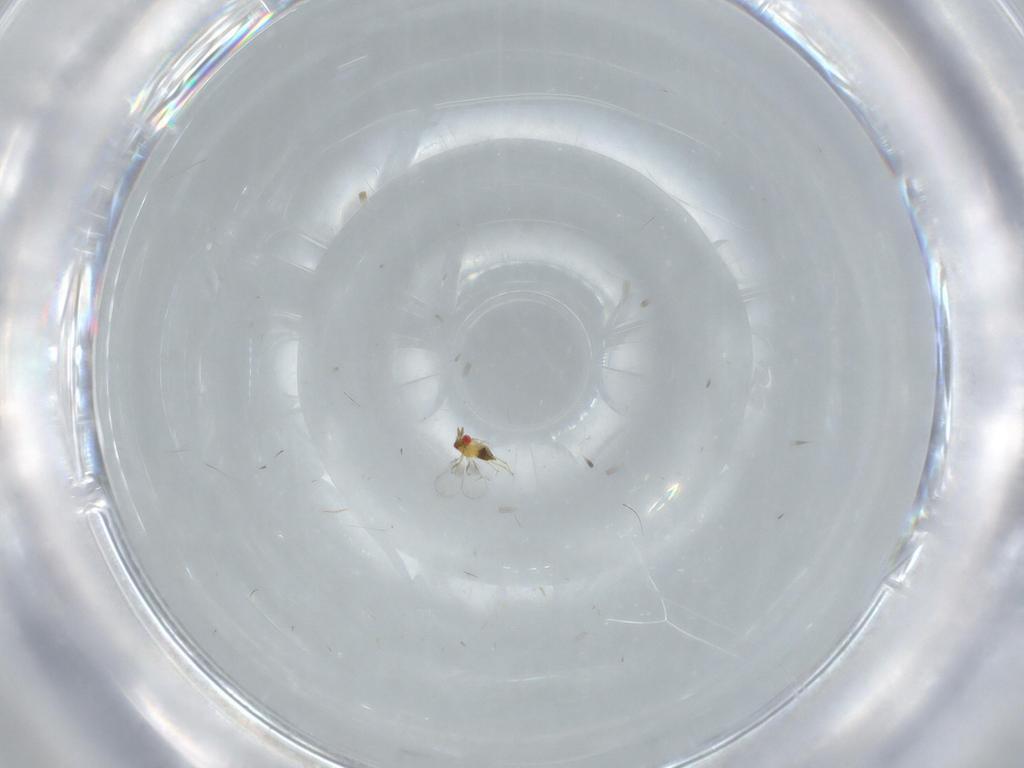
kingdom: Animalia
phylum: Arthropoda
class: Insecta
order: Hymenoptera
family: Trichogrammatidae
